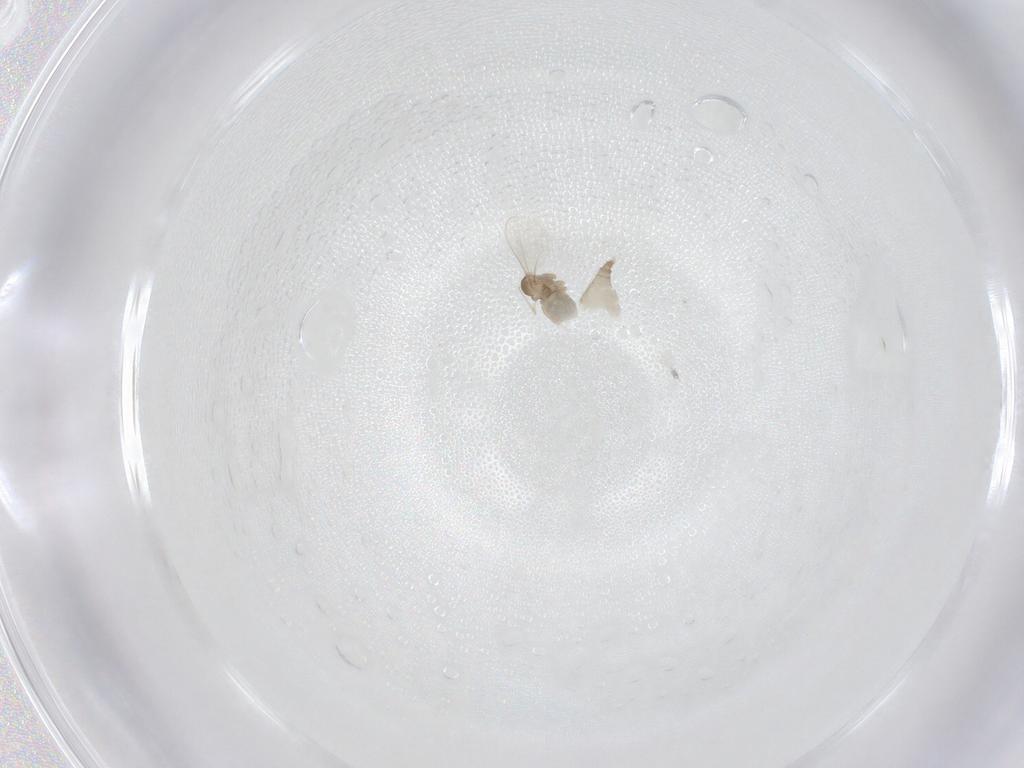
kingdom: Animalia
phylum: Arthropoda
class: Insecta
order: Diptera
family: Cecidomyiidae
